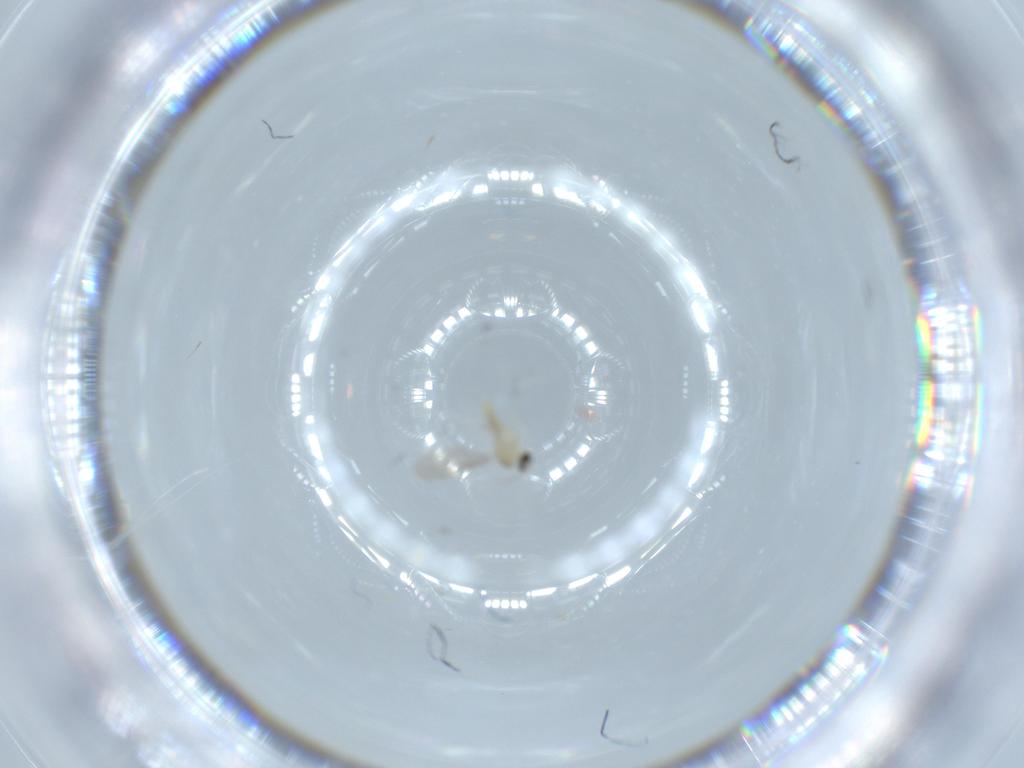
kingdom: Animalia
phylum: Arthropoda
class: Insecta
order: Diptera
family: Cecidomyiidae
